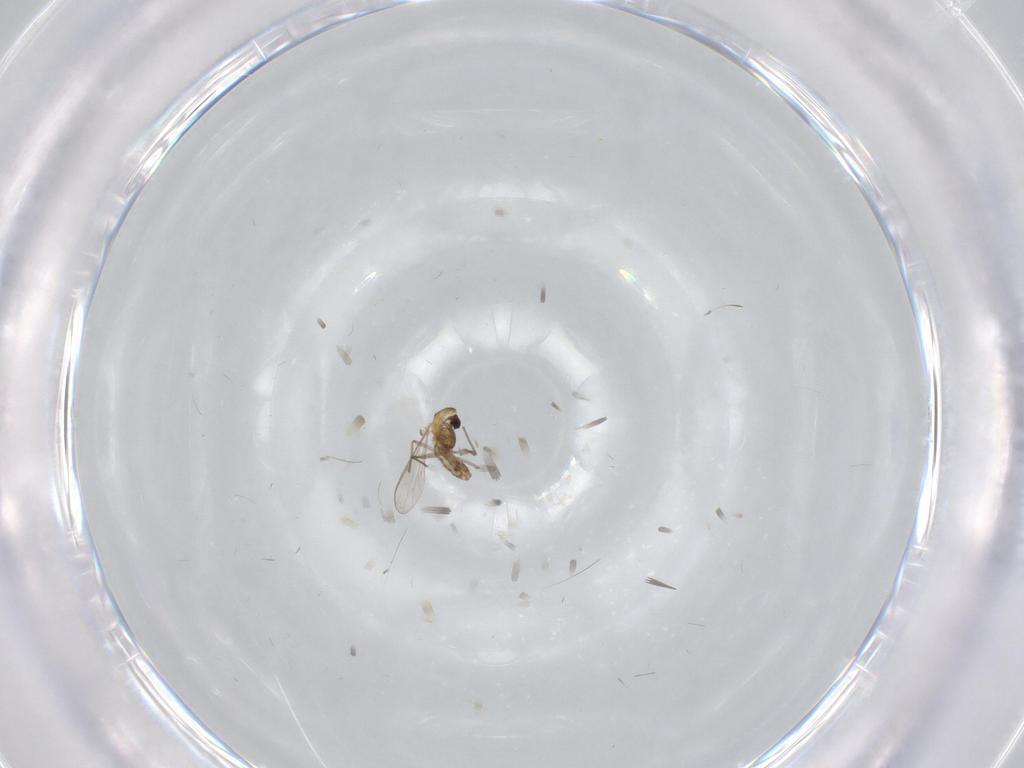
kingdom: Animalia
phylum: Arthropoda
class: Insecta
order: Diptera
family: Chironomidae
